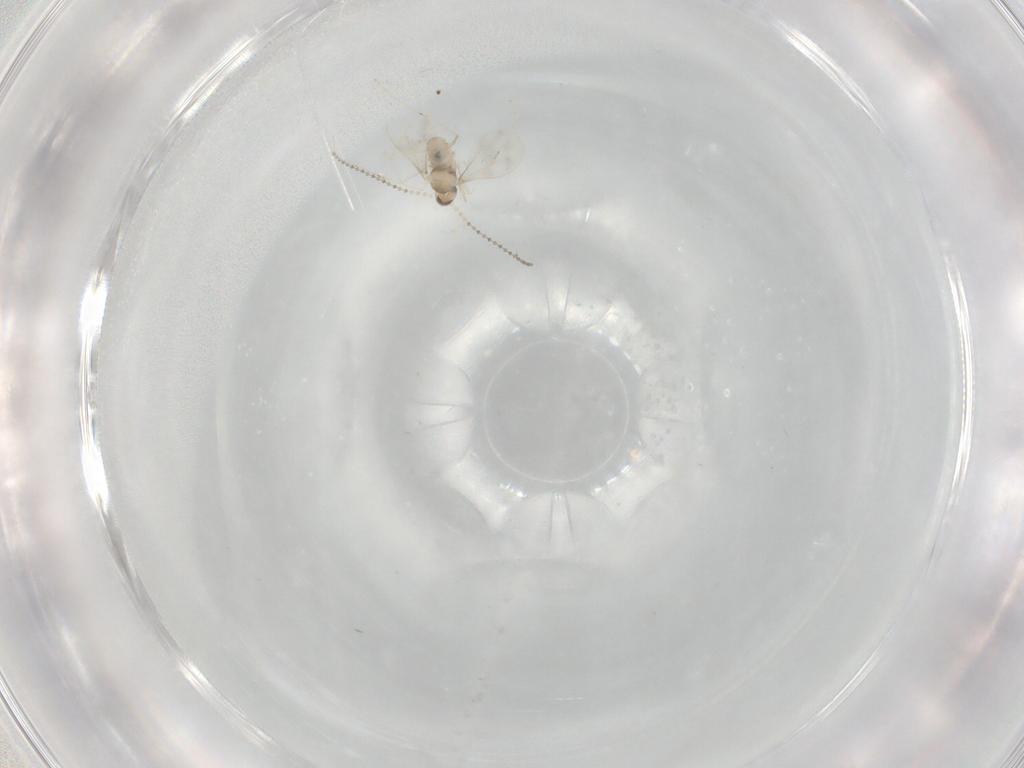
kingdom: Animalia
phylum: Arthropoda
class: Insecta
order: Diptera
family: Cecidomyiidae
